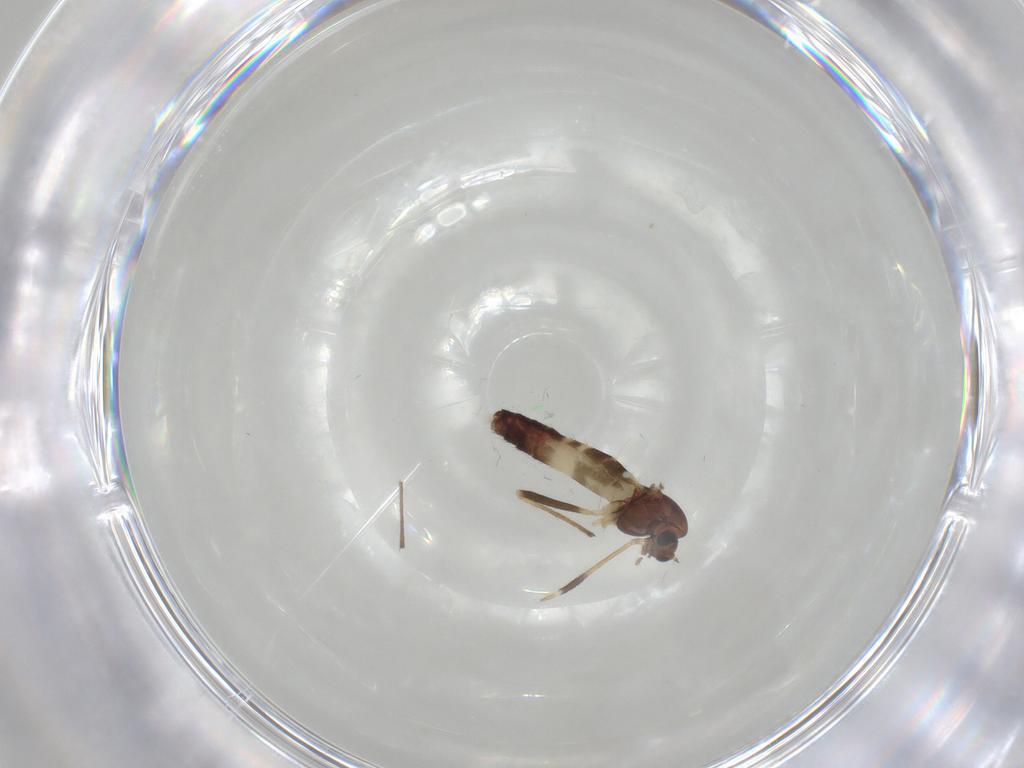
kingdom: Animalia
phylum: Arthropoda
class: Insecta
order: Diptera
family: Chironomidae
